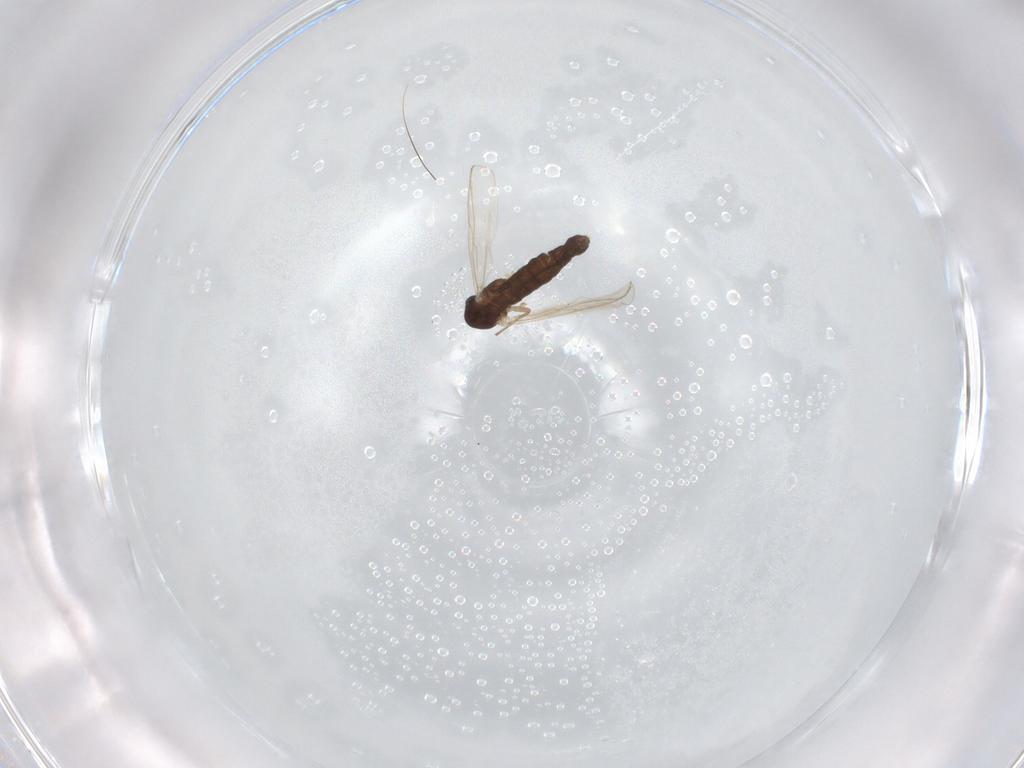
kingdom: Animalia
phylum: Arthropoda
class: Insecta
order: Diptera
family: Chironomidae
